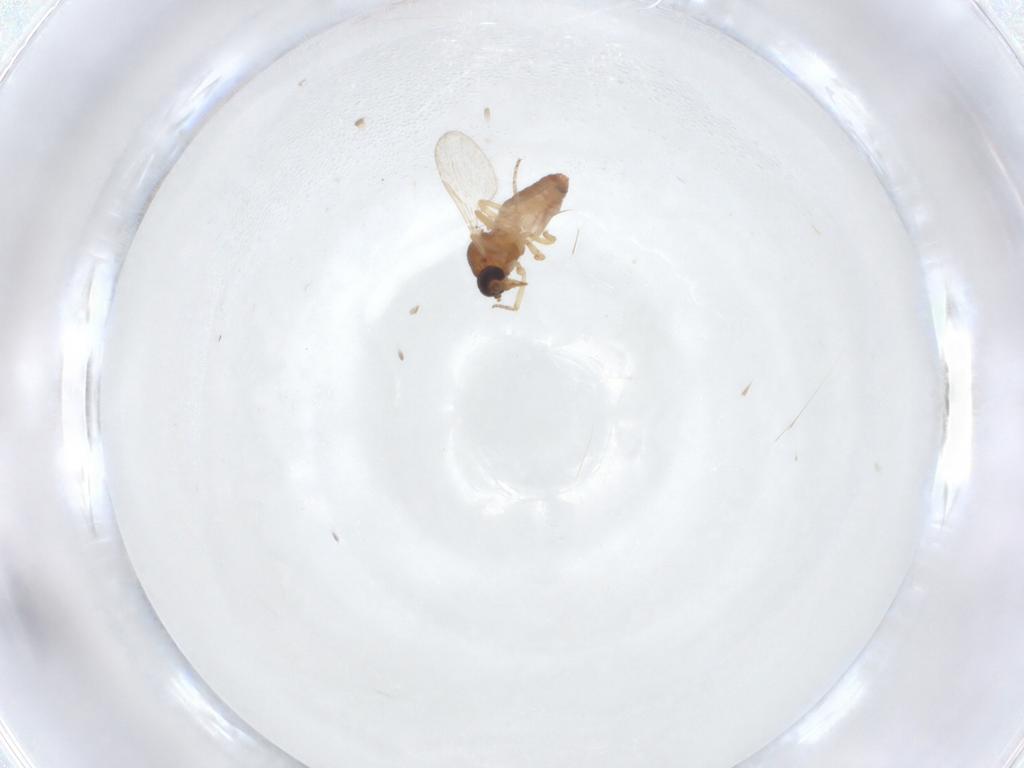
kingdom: Animalia
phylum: Arthropoda
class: Insecta
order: Diptera
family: Ceratopogonidae
